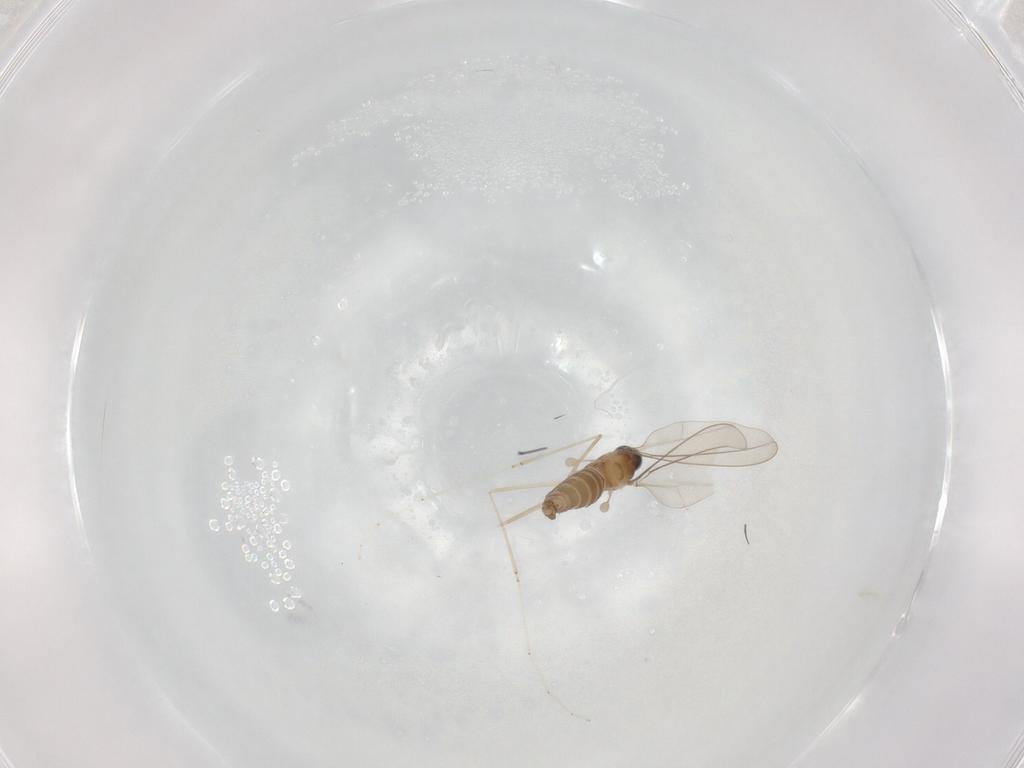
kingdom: Animalia
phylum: Arthropoda
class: Insecta
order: Diptera
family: Cecidomyiidae
